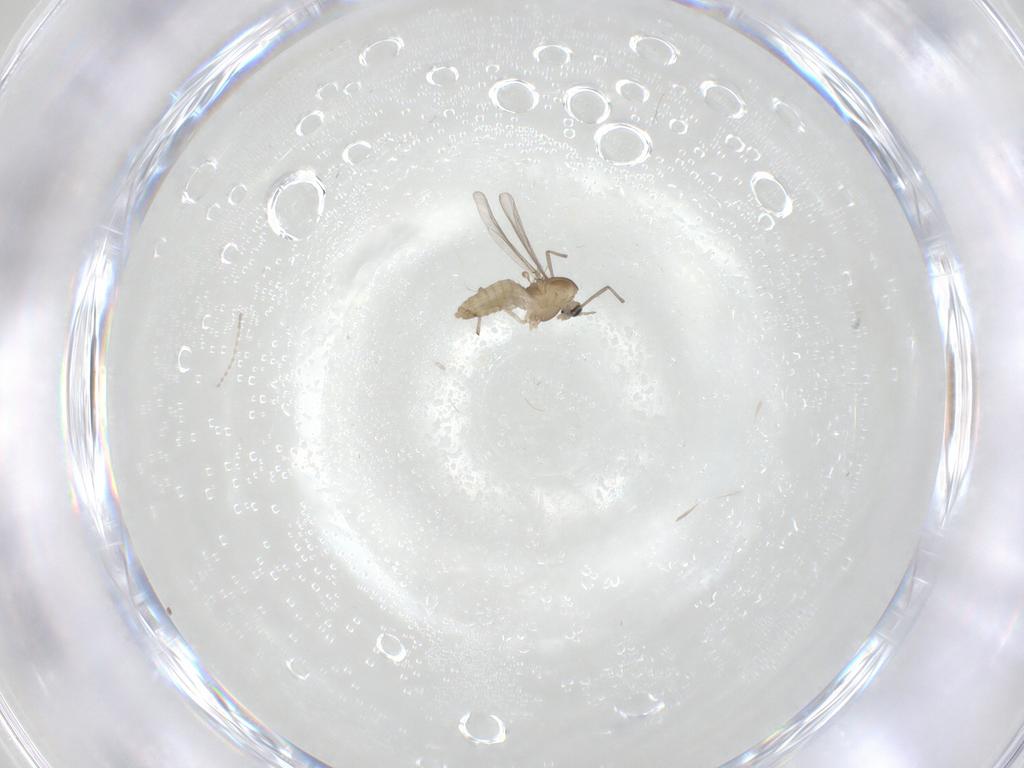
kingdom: Animalia
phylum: Arthropoda
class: Insecta
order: Diptera
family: Chironomidae
